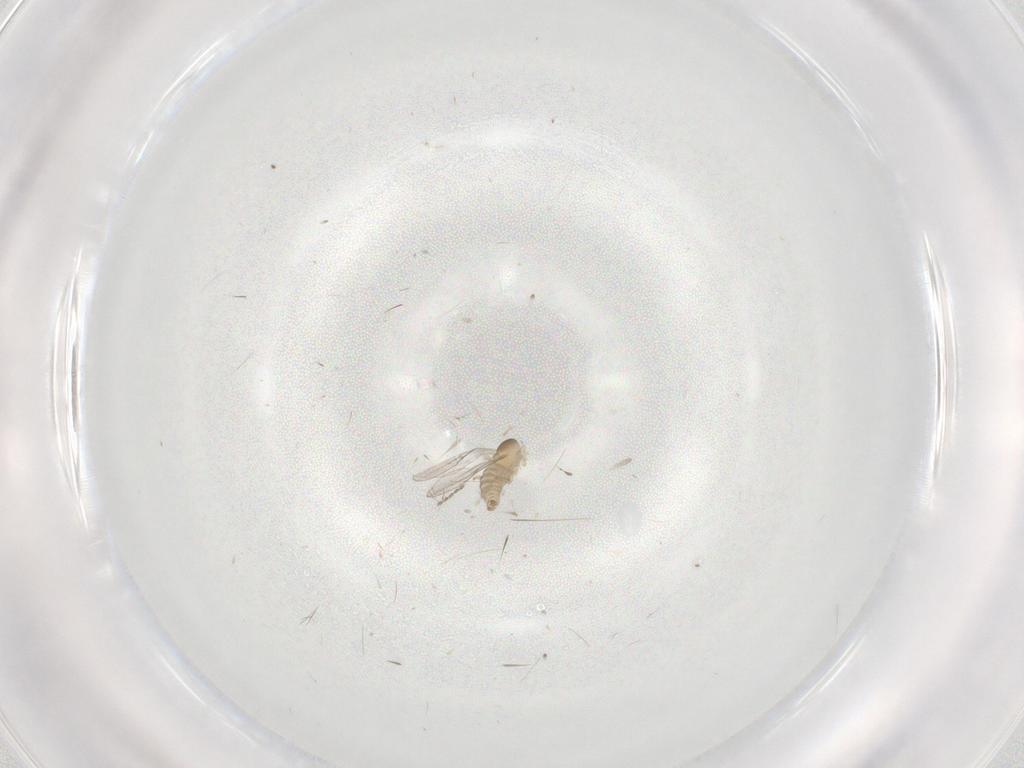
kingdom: Animalia
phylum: Arthropoda
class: Insecta
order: Diptera
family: Cecidomyiidae
